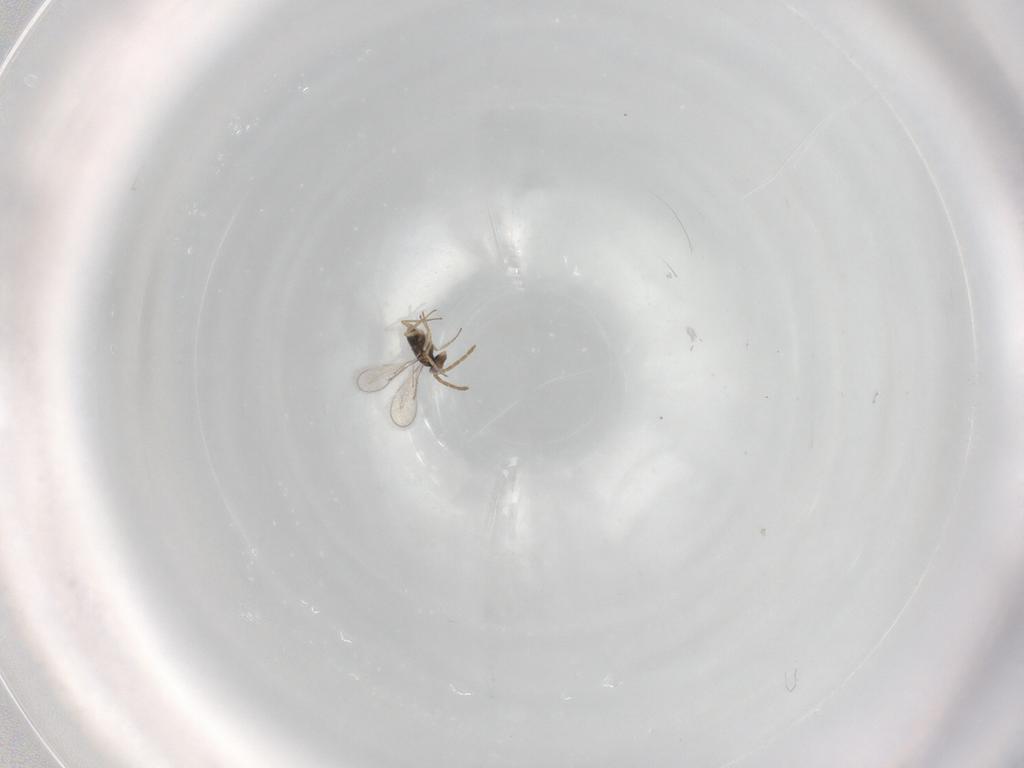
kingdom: Animalia
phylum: Arthropoda
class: Insecta
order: Hymenoptera
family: Aphelinidae
